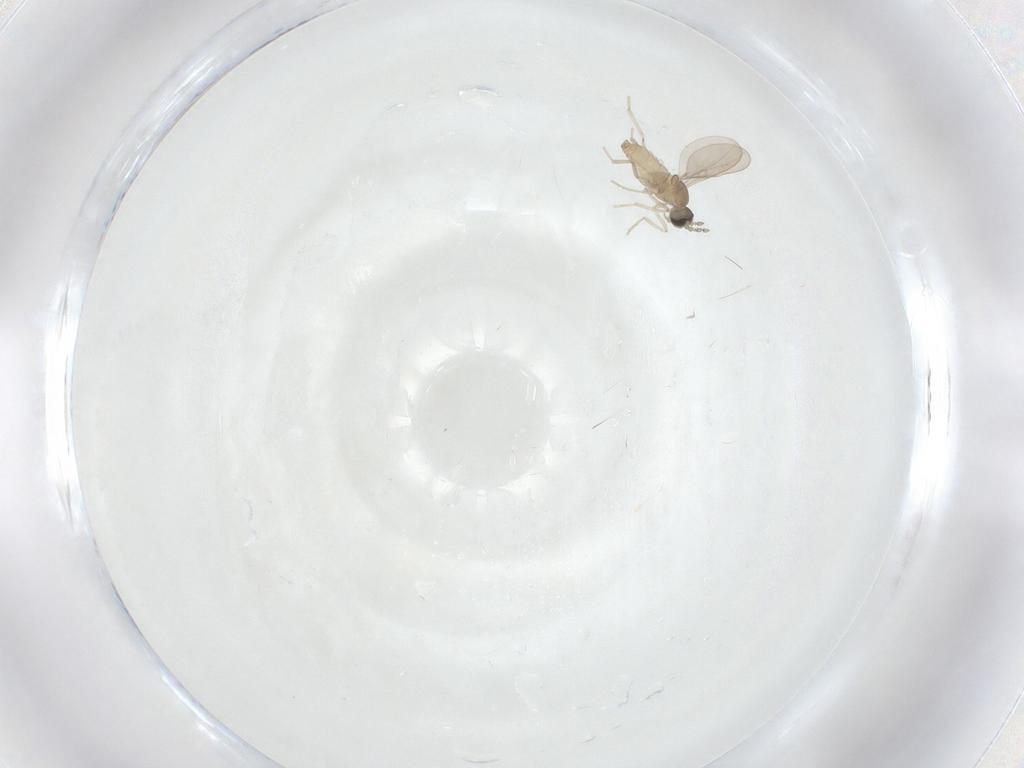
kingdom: Animalia
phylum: Arthropoda
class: Insecta
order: Diptera
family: Cecidomyiidae
